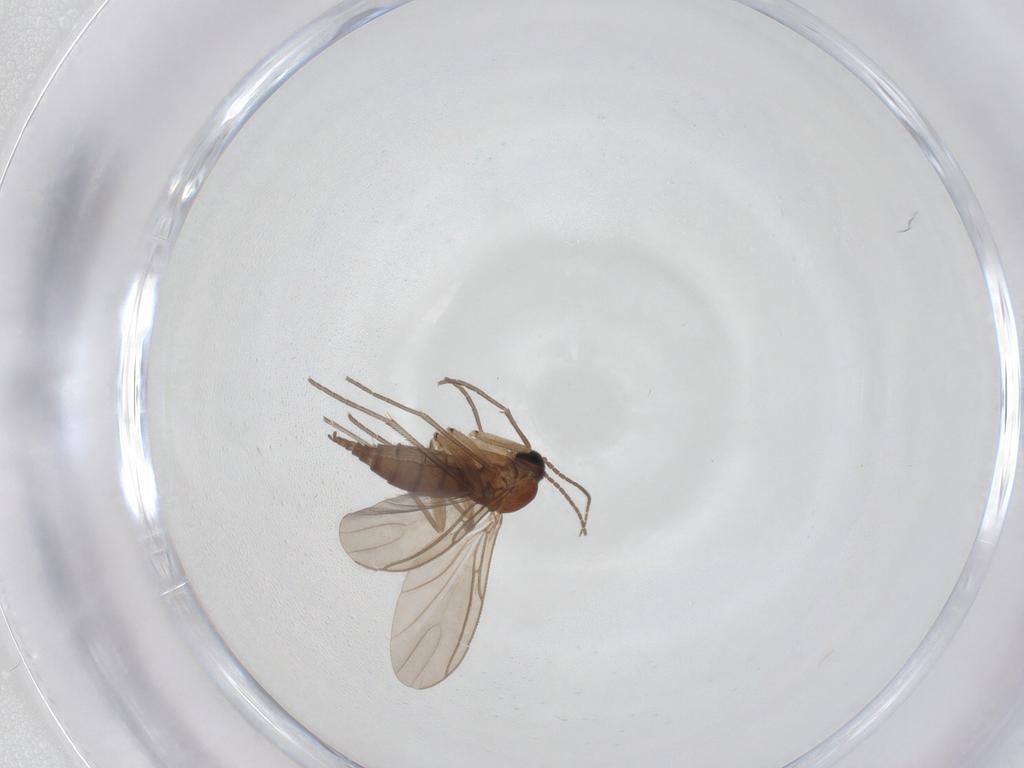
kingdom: Animalia
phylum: Arthropoda
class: Insecta
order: Diptera
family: Sciaridae
